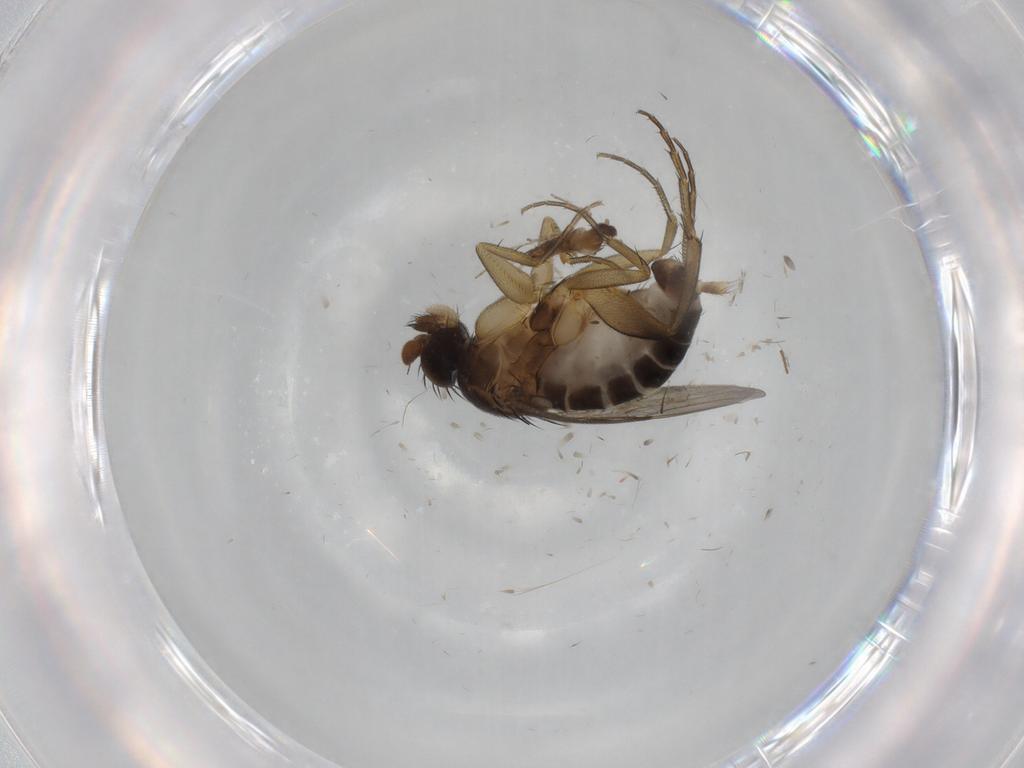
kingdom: Animalia
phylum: Arthropoda
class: Insecta
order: Diptera
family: Phoridae
